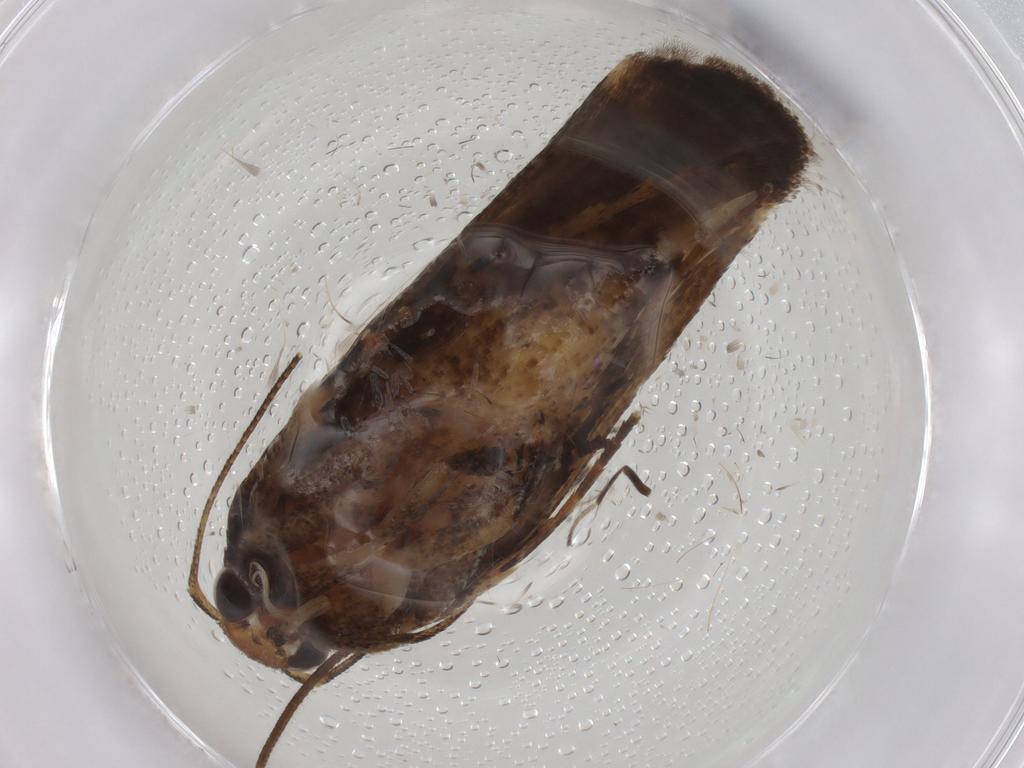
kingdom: Animalia
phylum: Arthropoda
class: Insecta
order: Lepidoptera
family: Gelechiidae
